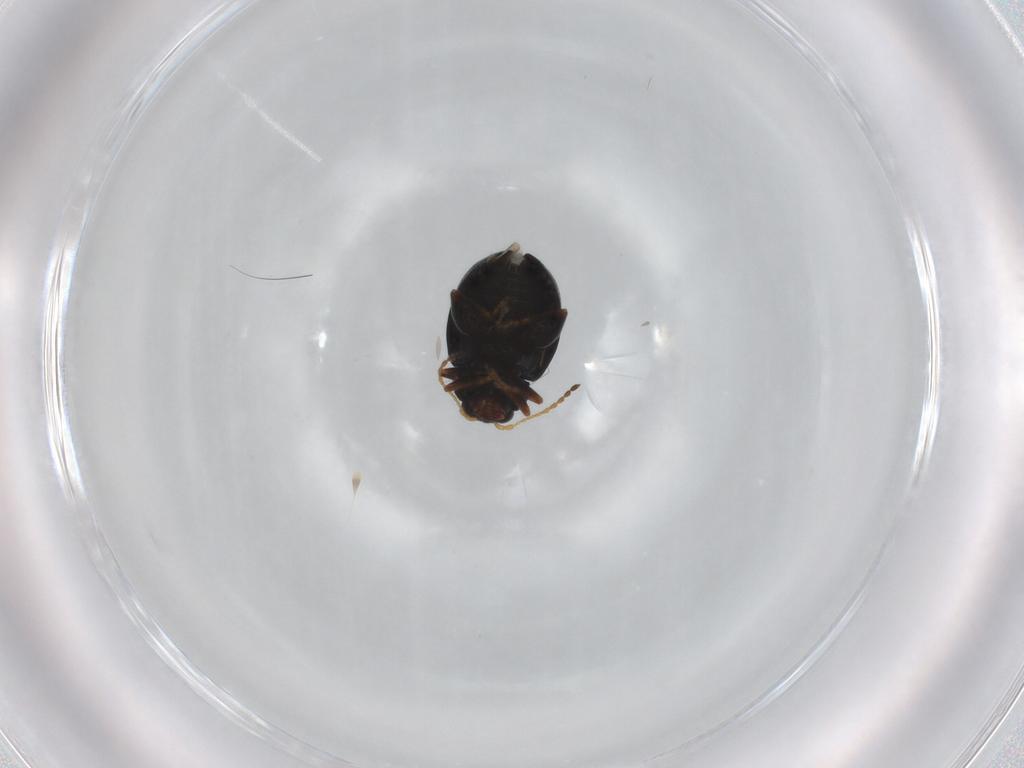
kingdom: Animalia
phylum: Arthropoda
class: Insecta
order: Coleoptera
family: Chrysomelidae
